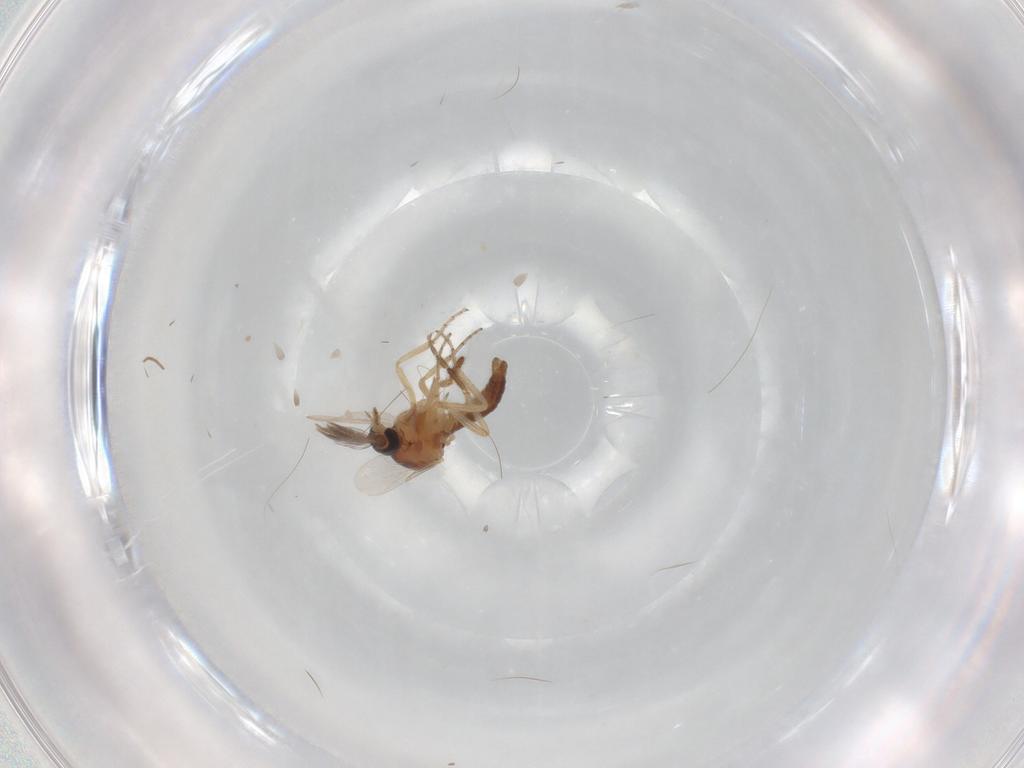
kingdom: Animalia
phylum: Arthropoda
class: Insecta
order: Diptera
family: Ceratopogonidae
